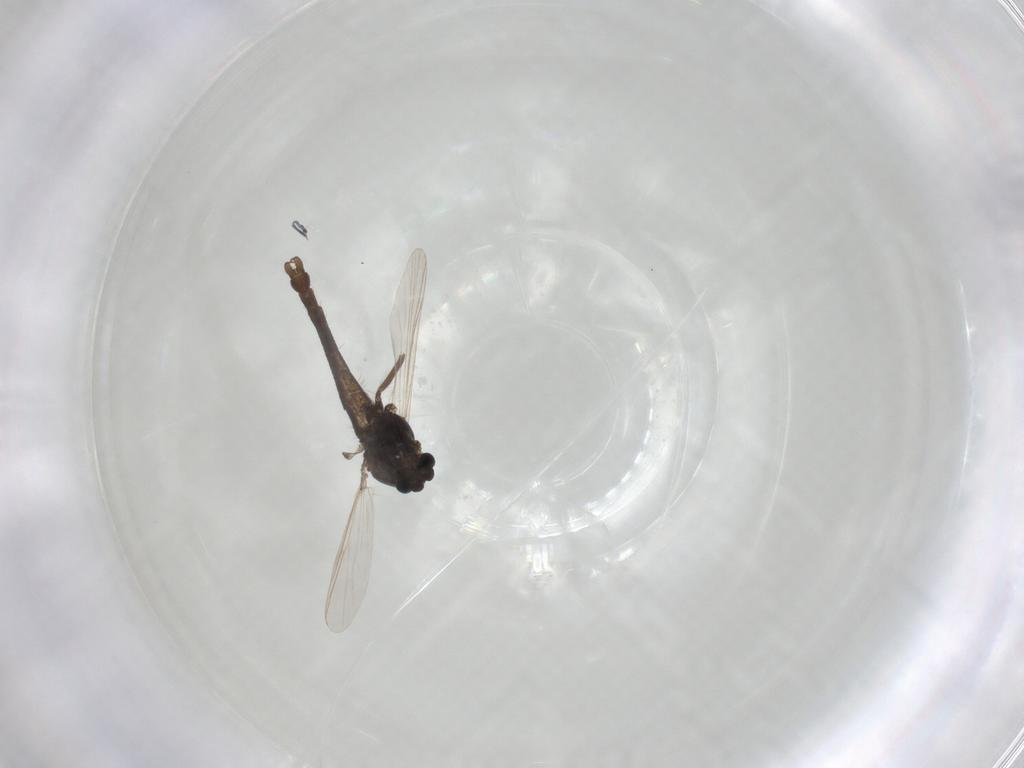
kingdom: Animalia
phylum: Arthropoda
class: Insecta
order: Diptera
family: Chironomidae
